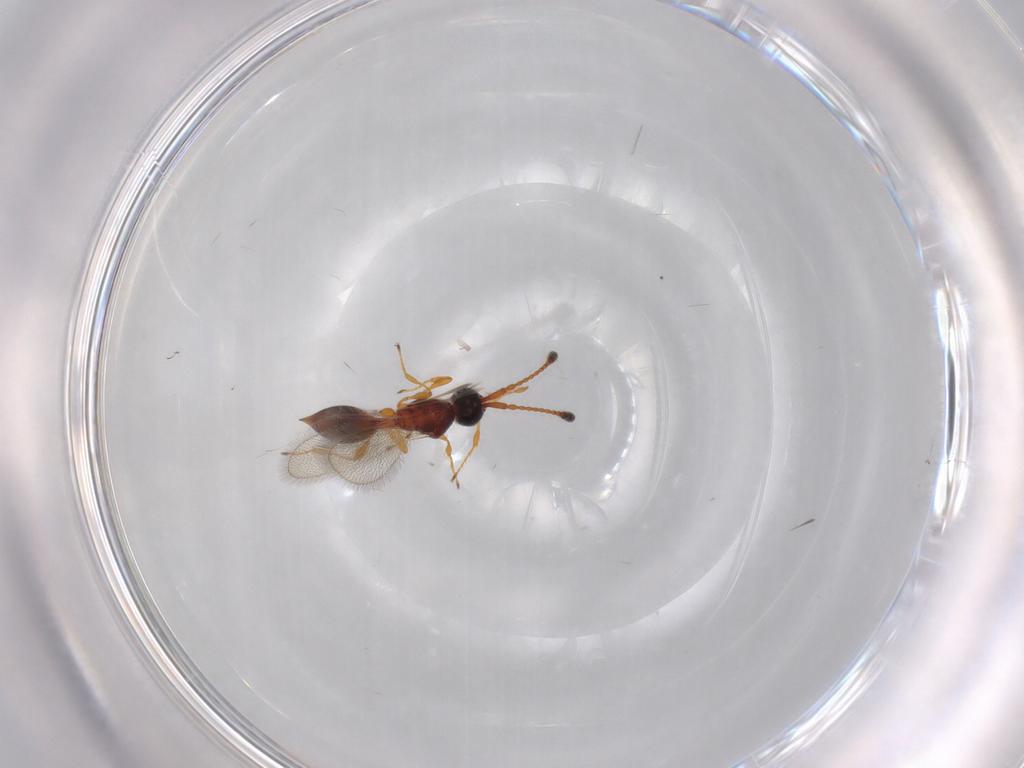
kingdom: Animalia
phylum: Arthropoda
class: Insecta
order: Hymenoptera
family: Diapriidae
